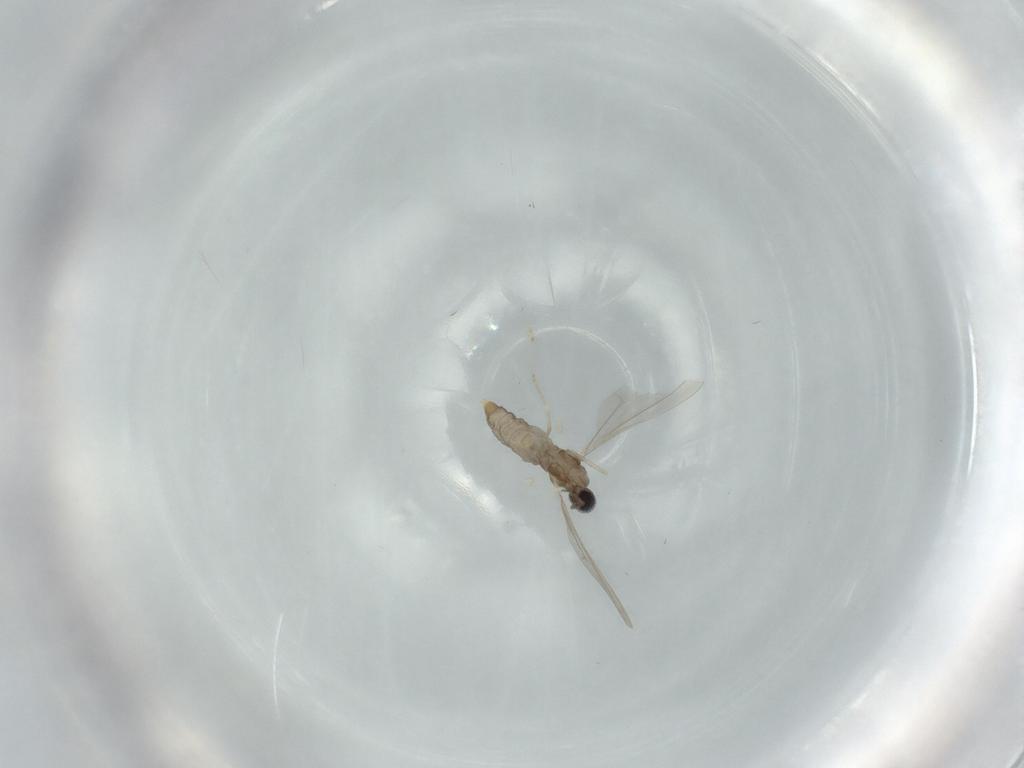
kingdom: Animalia
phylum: Arthropoda
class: Insecta
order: Diptera
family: Cecidomyiidae
